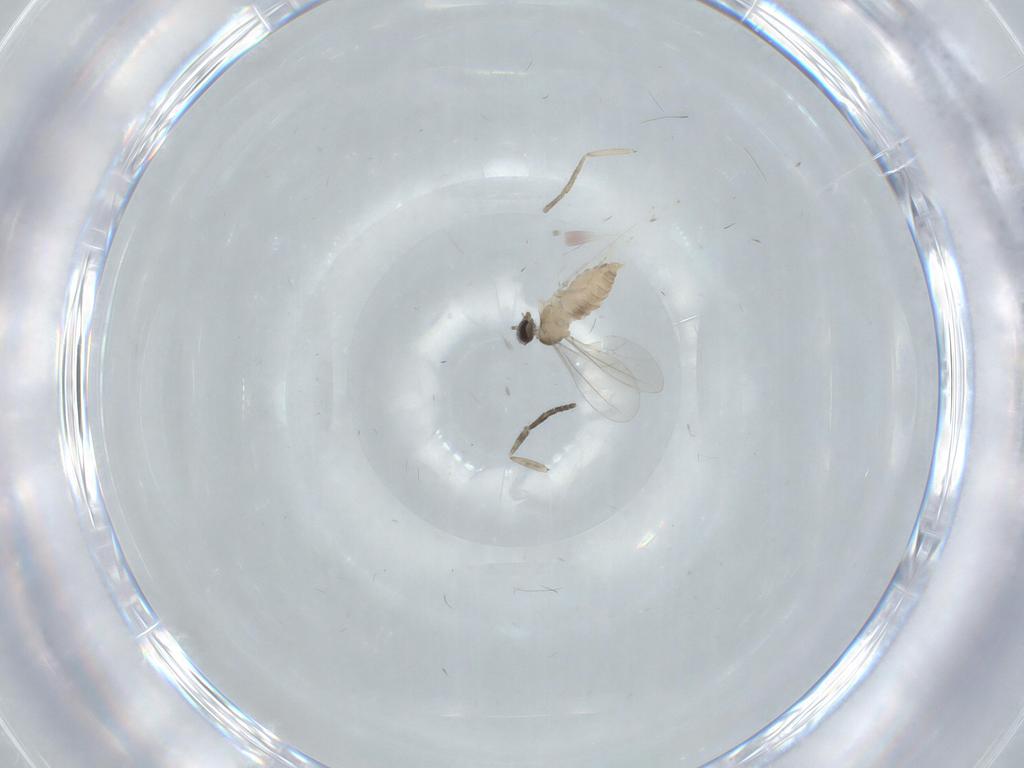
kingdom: Animalia
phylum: Arthropoda
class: Insecta
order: Diptera
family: Cecidomyiidae
